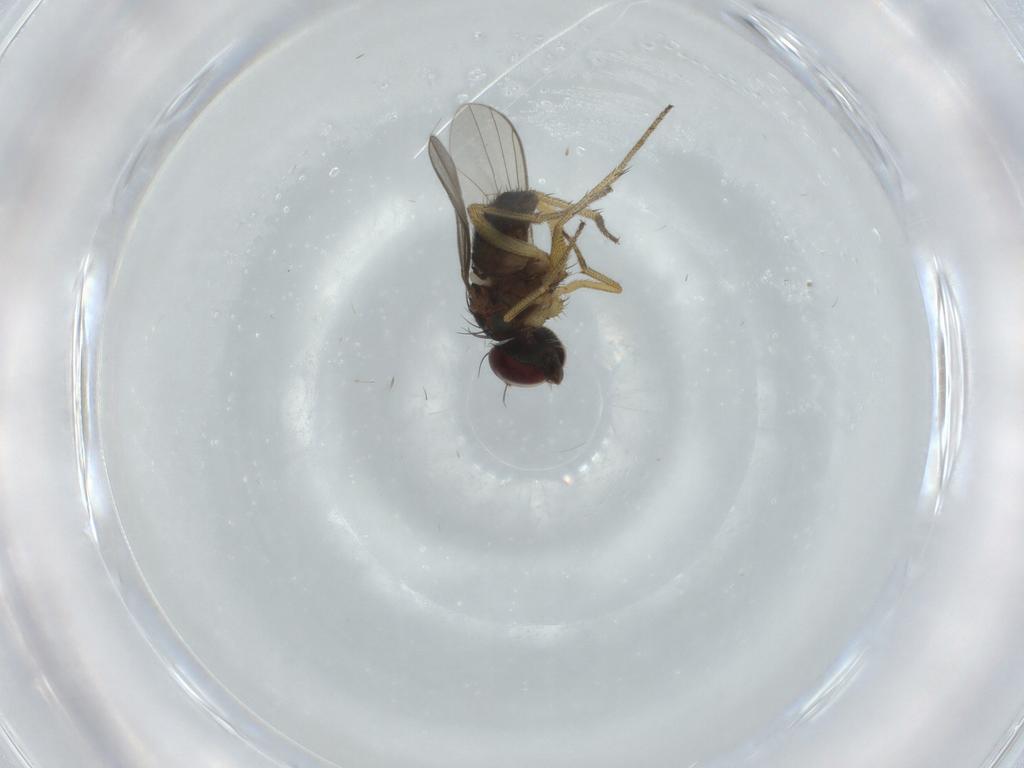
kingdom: Animalia
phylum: Arthropoda
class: Insecta
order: Diptera
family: Dolichopodidae
